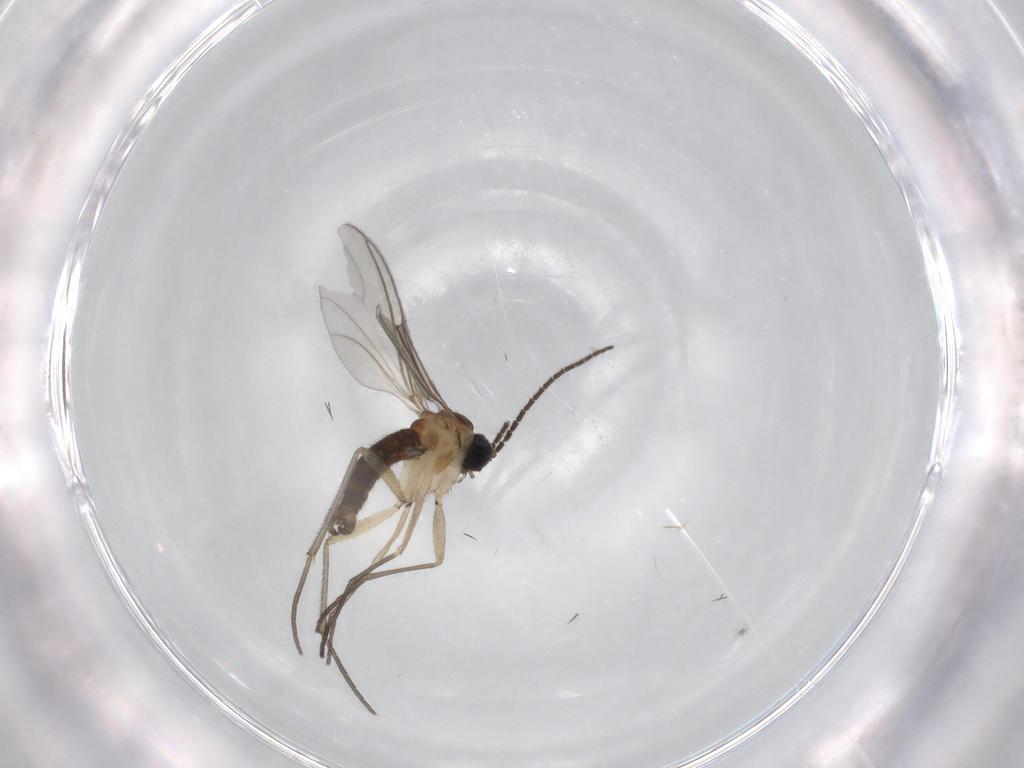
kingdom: Animalia
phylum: Arthropoda
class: Insecta
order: Diptera
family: Sciaridae
